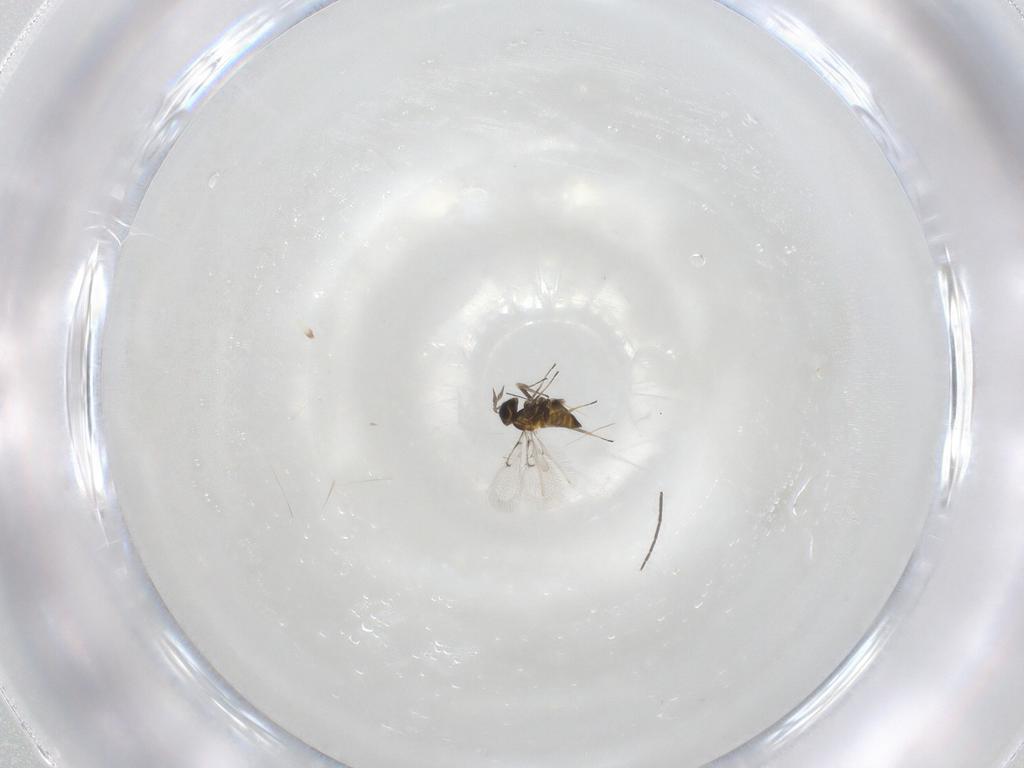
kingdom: Animalia
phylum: Arthropoda
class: Insecta
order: Hymenoptera
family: Trichogrammatidae
